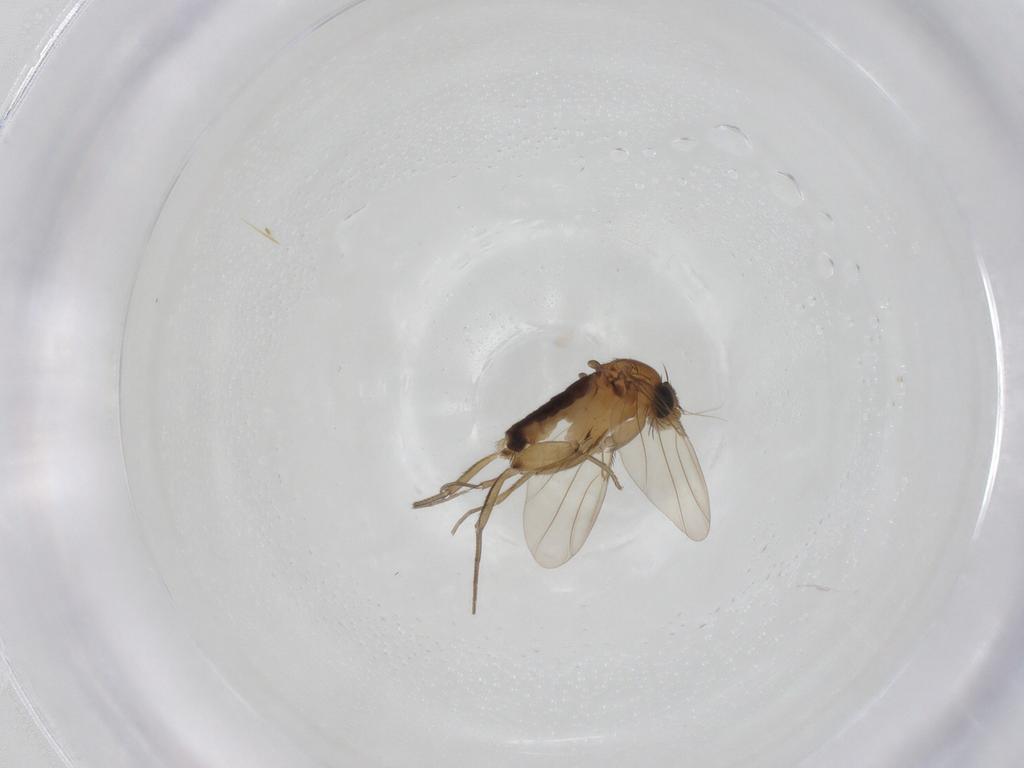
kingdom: Animalia
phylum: Arthropoda
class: Insecta
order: Diptera
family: Phoridae
